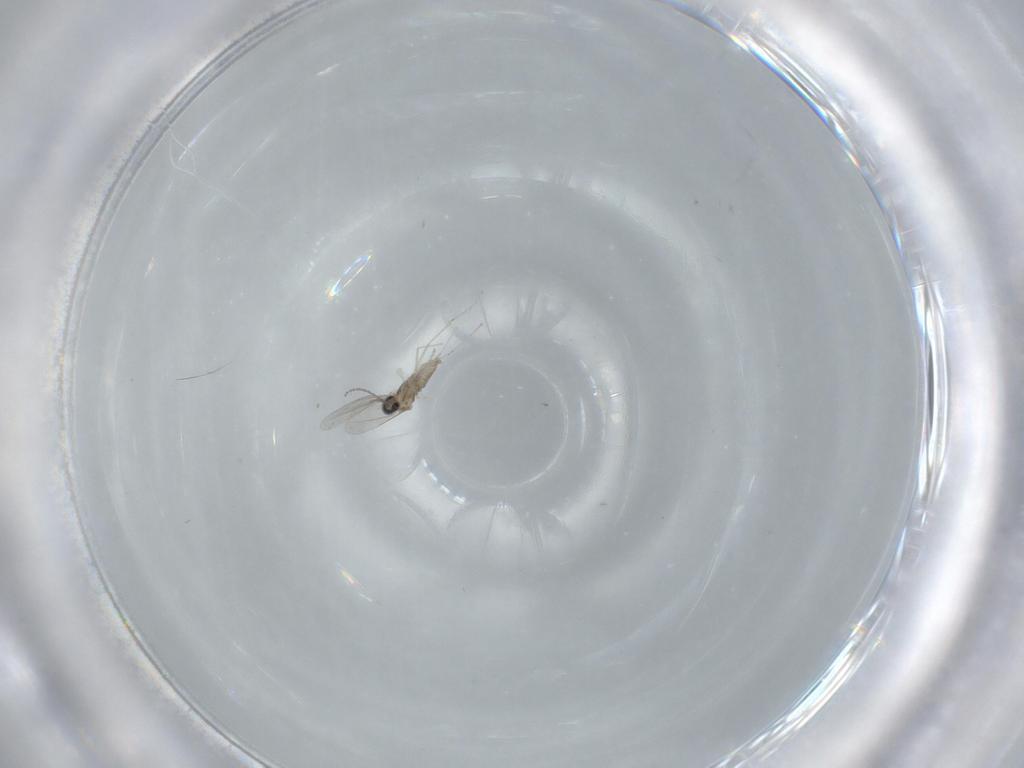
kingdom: Animalia
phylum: Arthropoda
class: Insecta
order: Diptera
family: Cecidomyiidae
